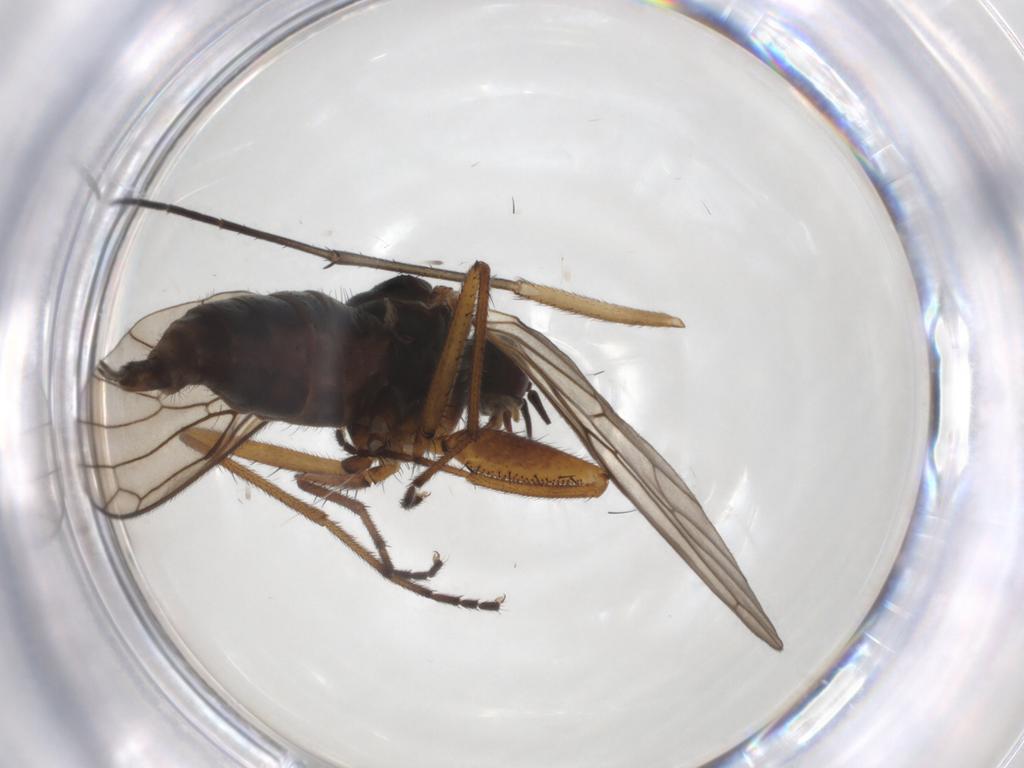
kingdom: Animalia
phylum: Arthropoda
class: Insecta
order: Diptera
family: Empididae
